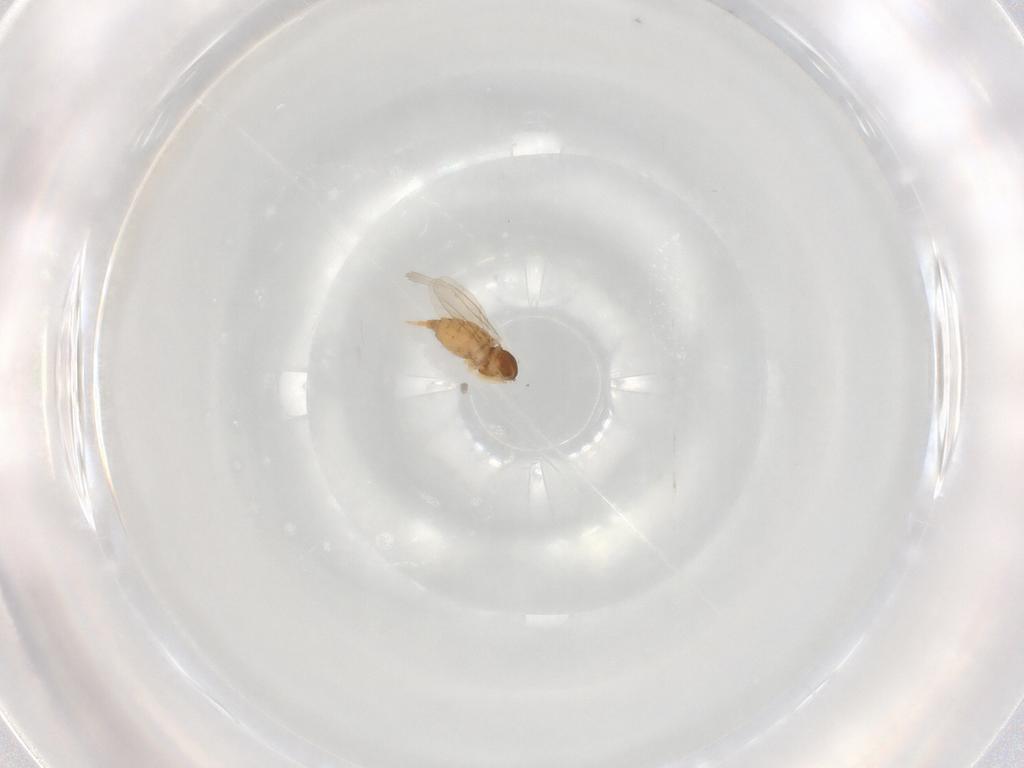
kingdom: Animalia
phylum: Arthropoda
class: Insecta
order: Diptera
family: Cecidomyiidae
